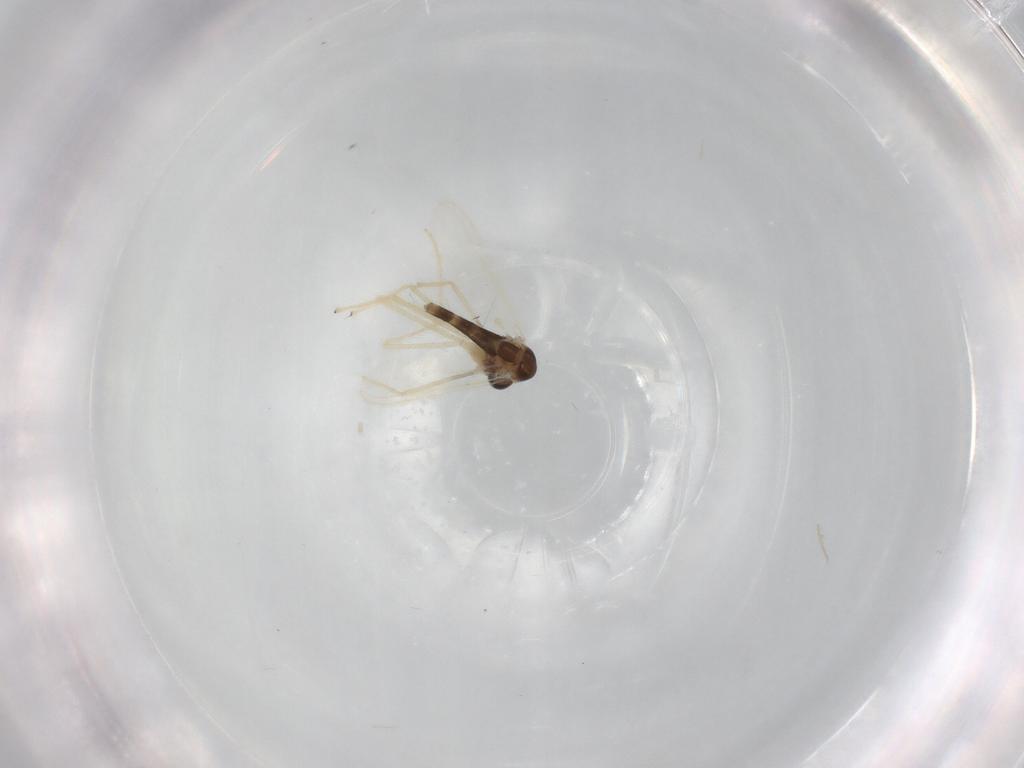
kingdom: Animalia
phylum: Arthropoda
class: Insecta
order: Diptera
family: Chironomidae
